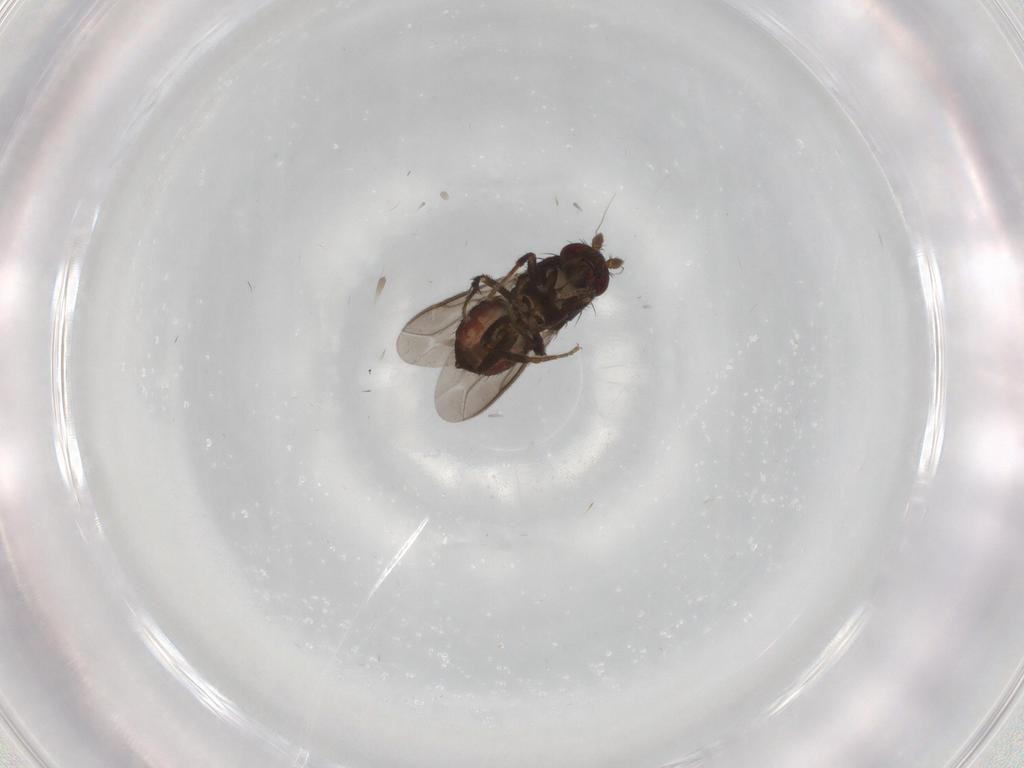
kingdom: Animalia
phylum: Arthropoda
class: Insecta
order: Diptera
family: Sphaeroceridae
